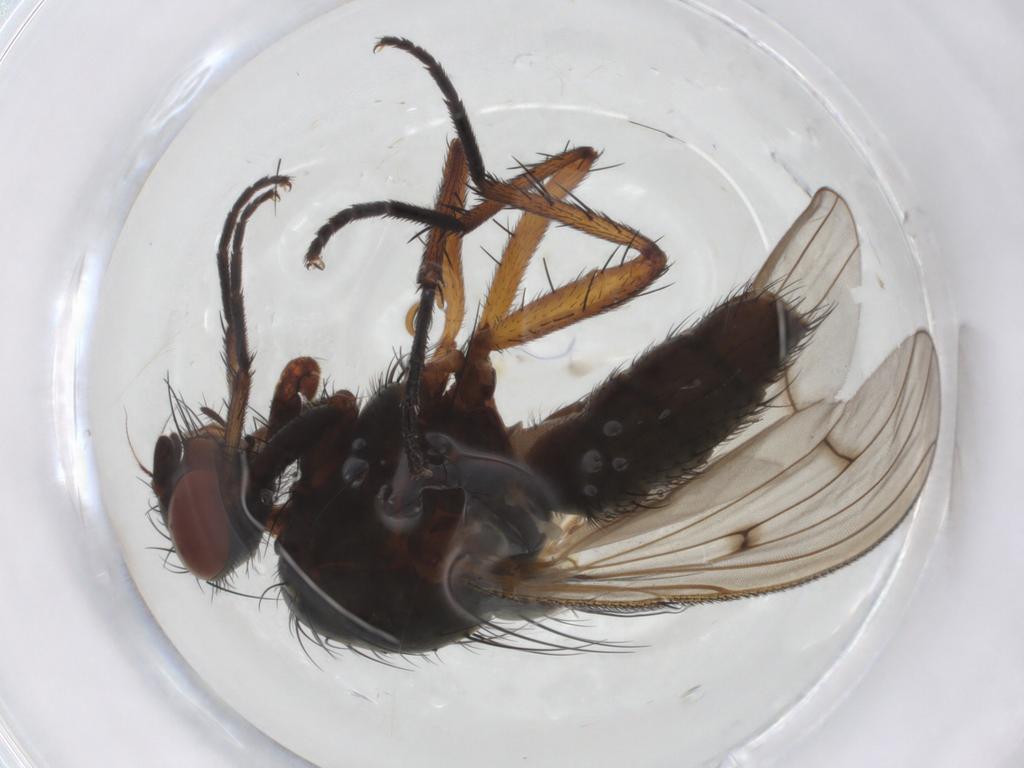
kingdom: Animalia
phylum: Arthropoda
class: Insecta
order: Diptera
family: Anthomyiidae
